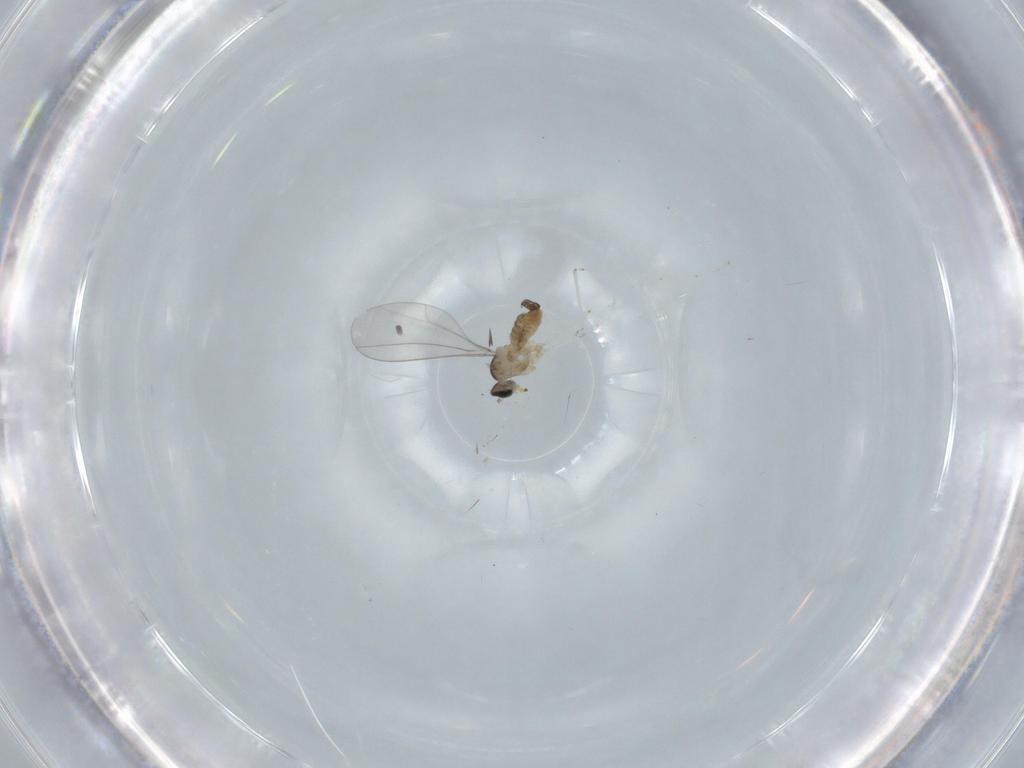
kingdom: Animalia
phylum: Arthropoda
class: Insecta
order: Diptera
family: Cecidomyiidae
